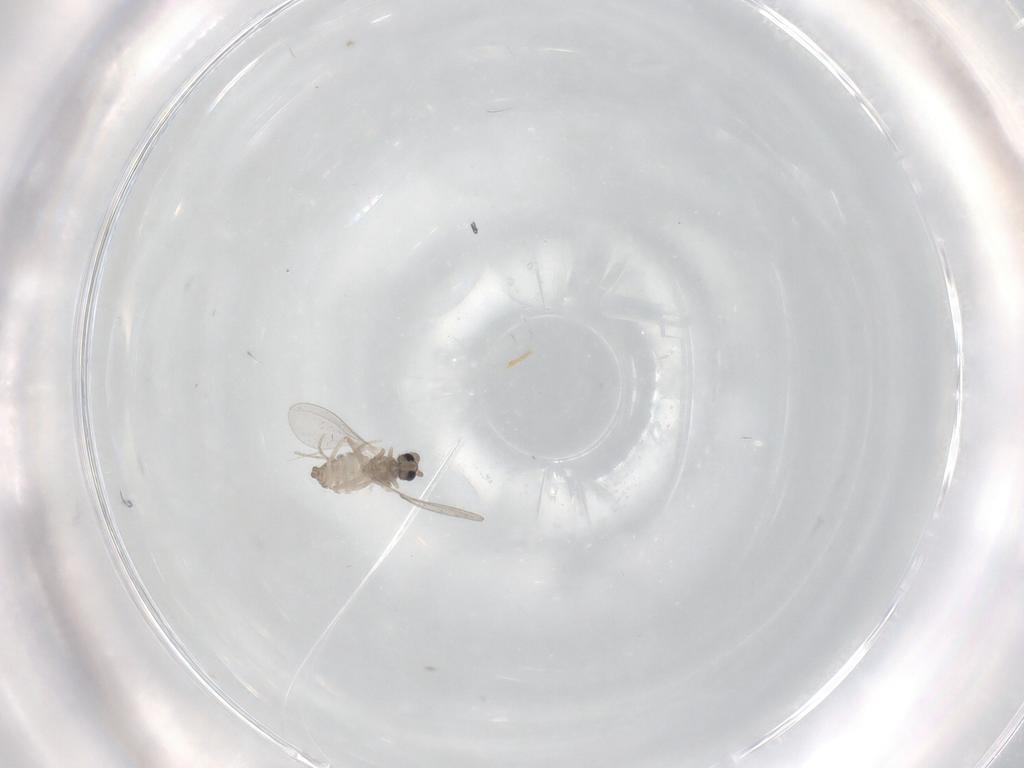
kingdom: Animalia
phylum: Arthropoda
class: Insecta
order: Diptera
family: Cecidomyiidae
